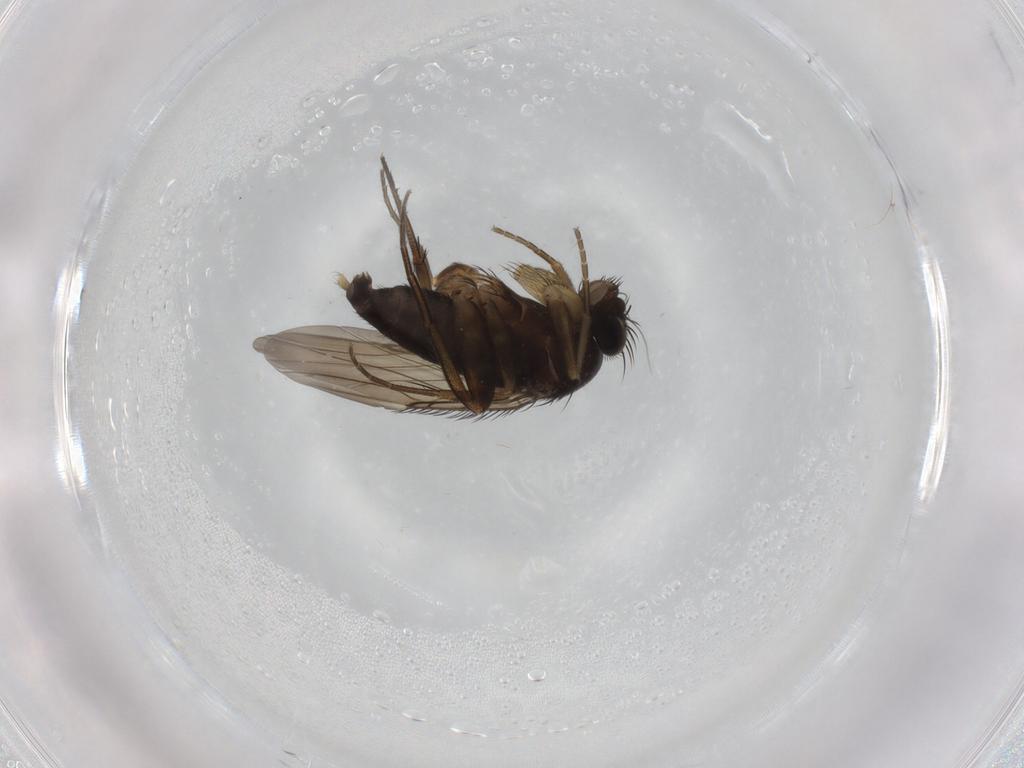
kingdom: Animalia
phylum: Arthropoda
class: Insecta
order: Diptera
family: Phoridae
